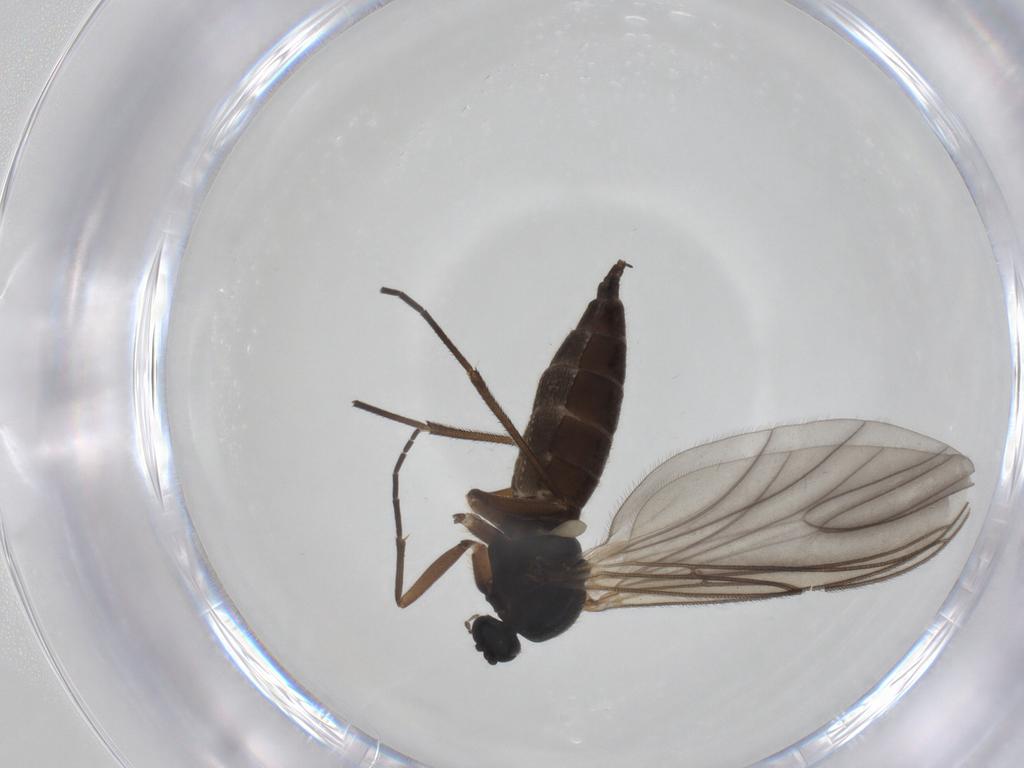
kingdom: Animalia
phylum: Arthropoda
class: Insecta
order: Diptera
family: Sciaridae
